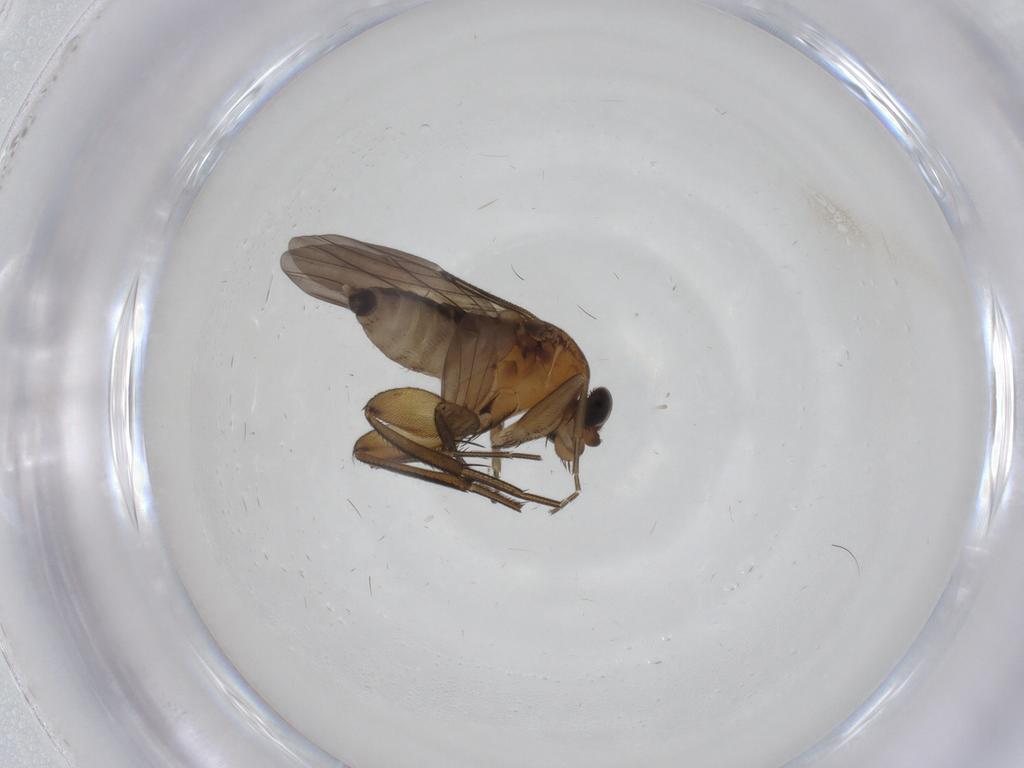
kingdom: Animalia
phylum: Arthropoda
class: Insecta
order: Diptera
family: Phoridae
